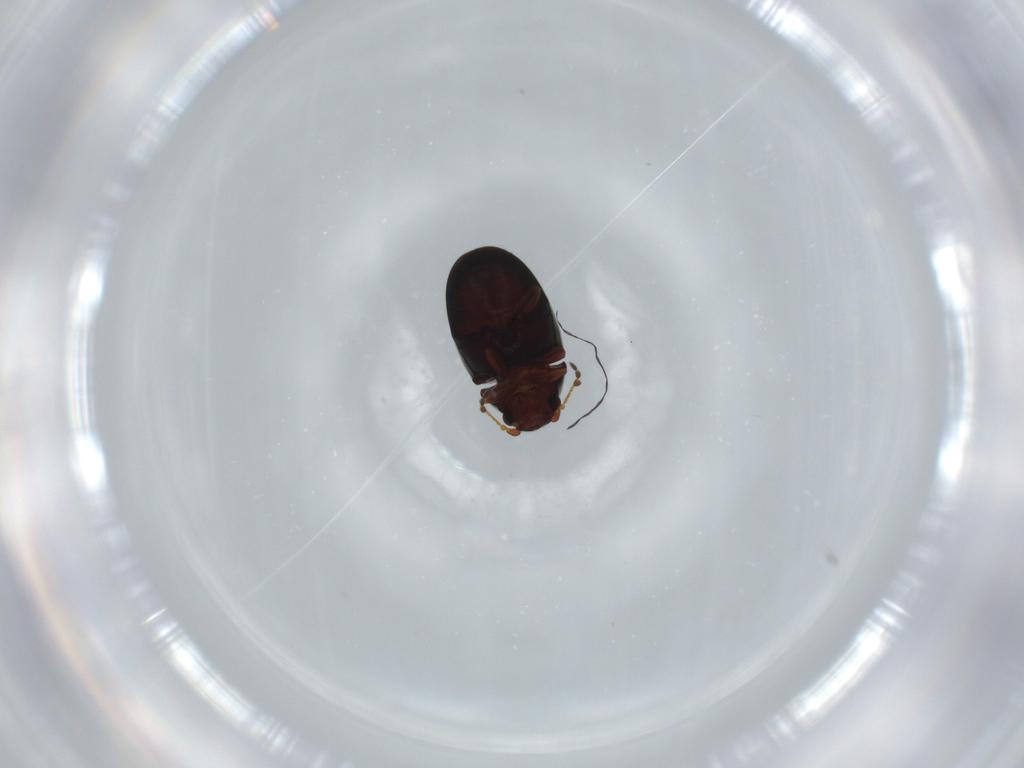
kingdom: Animalia
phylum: Arthropoda
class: Insecta
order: Coleoptera
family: Ptinidae
